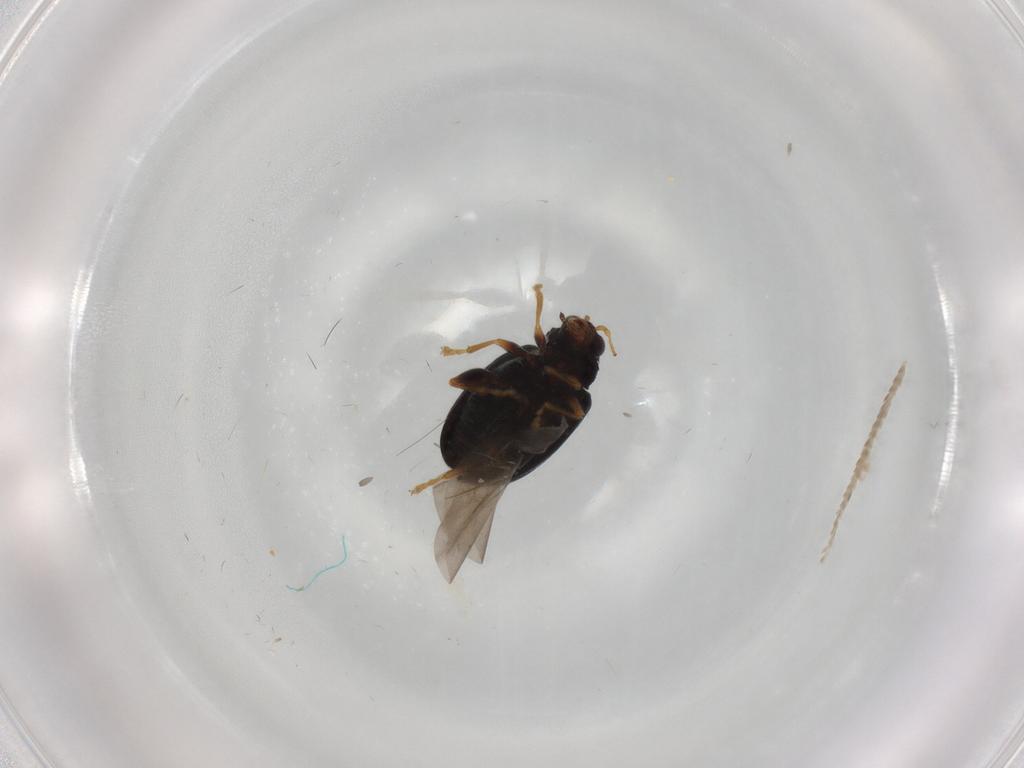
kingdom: Animalia
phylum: Arthropoda
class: Insecta
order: Coleoptera
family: Chrysomelidae
